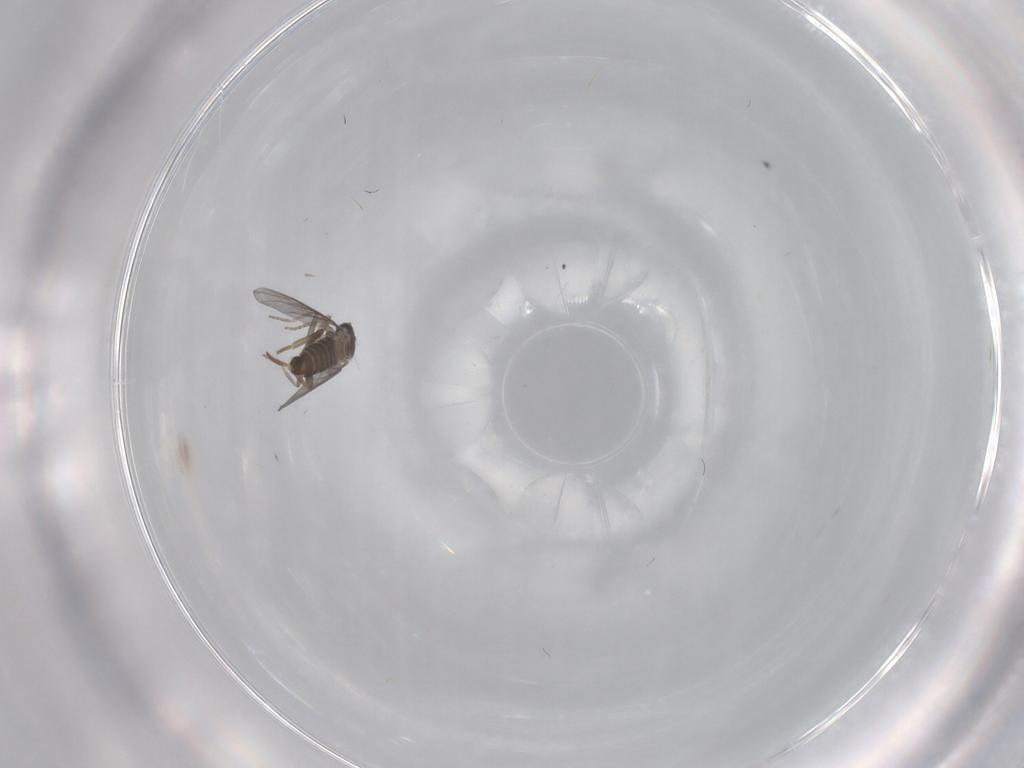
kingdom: Animalia
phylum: Arthropoda
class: Insecta
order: Diptera
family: Cecidomyiidae
